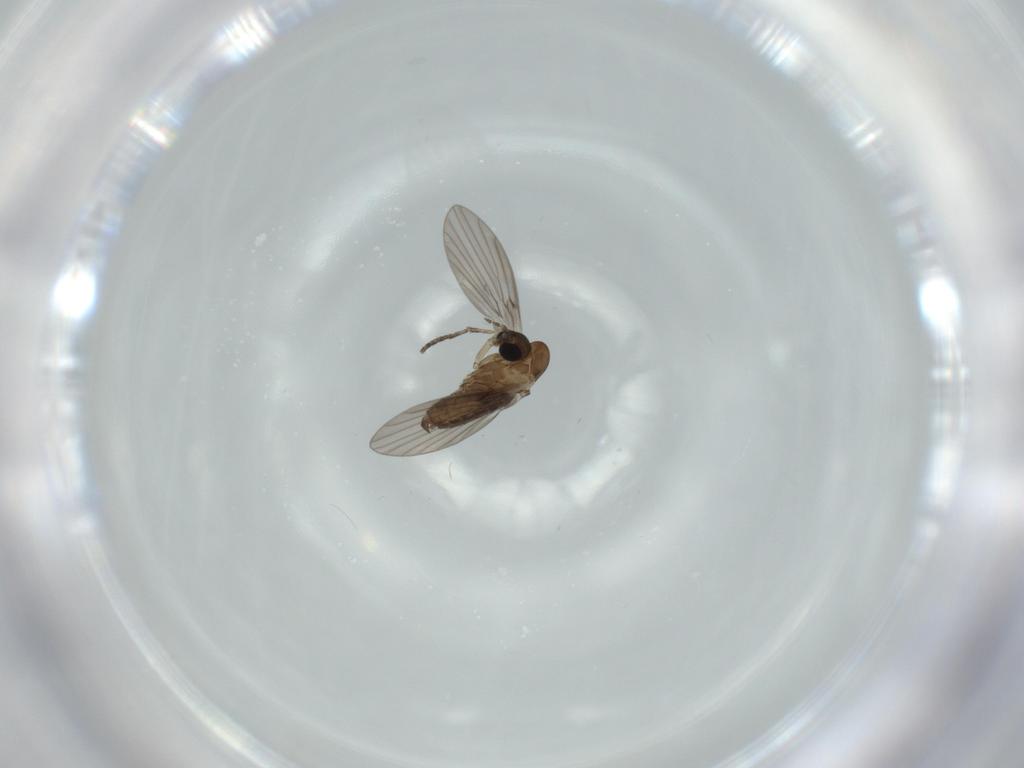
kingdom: Animalia
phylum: Arthropoda
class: Insecta
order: Diptera
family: Psychodidae
